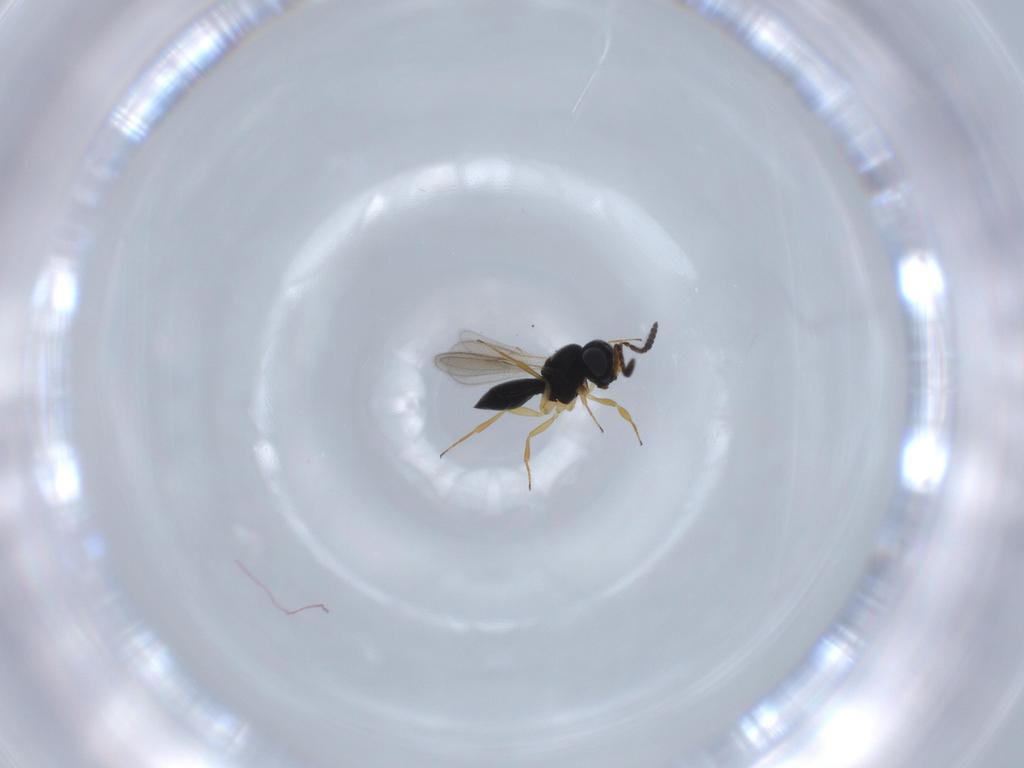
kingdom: Animalia
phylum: Arthropoda
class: Insecta
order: Hymenoptera
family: Scelionidae
